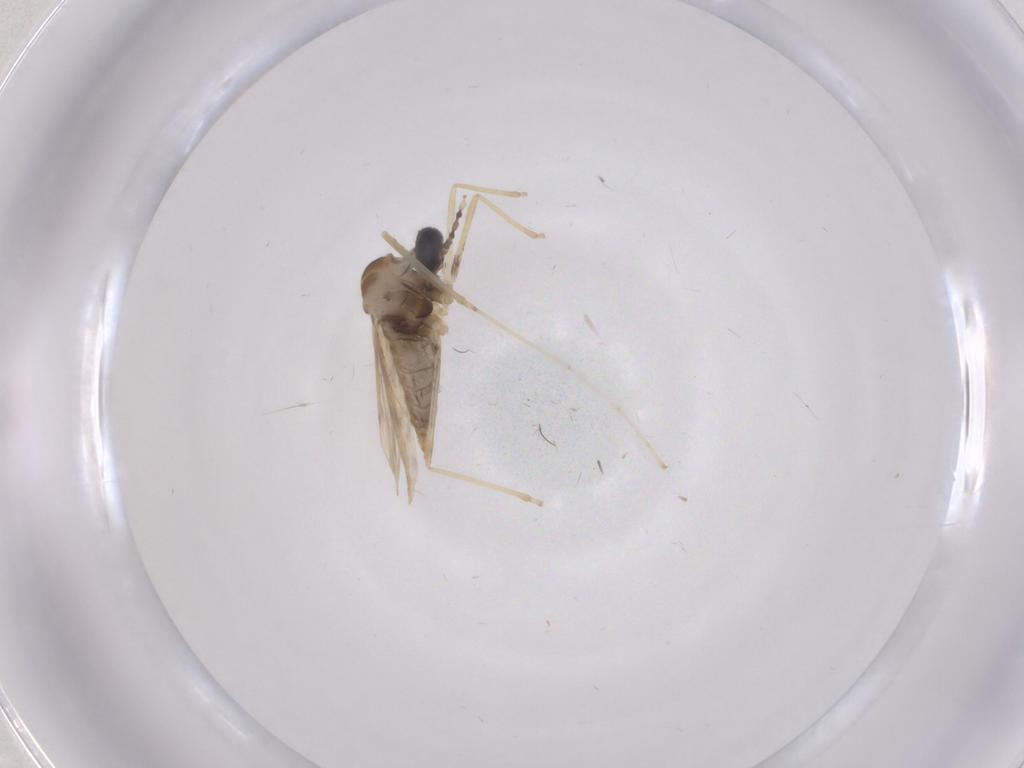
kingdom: Animalia
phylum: Arthropoda
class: Insecta
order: Diptera
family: Cecidomyiidae
